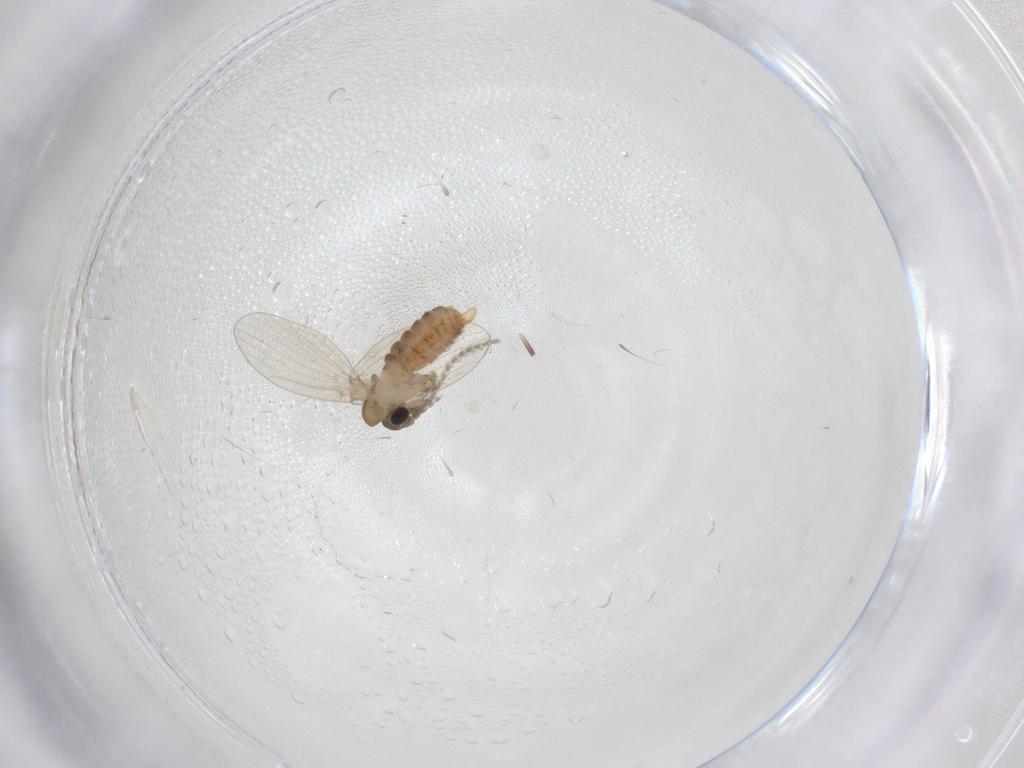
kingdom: Animalia
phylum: Arthropoda
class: Insecta
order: Diptera
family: Psychodidae
